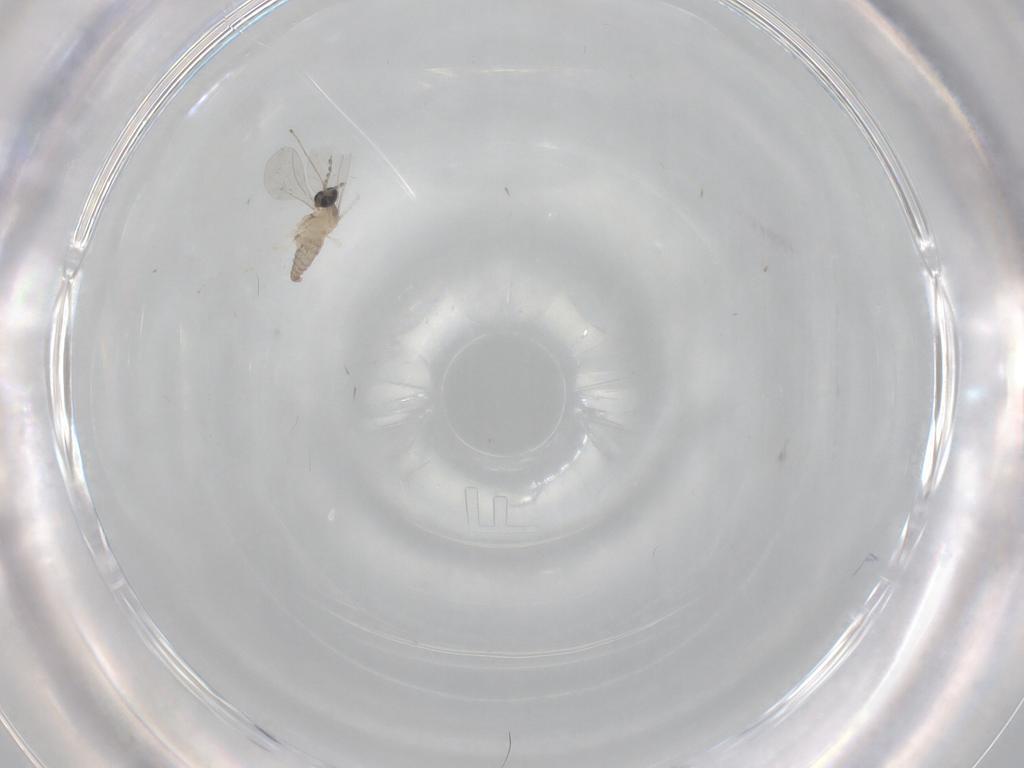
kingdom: Animalia
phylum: Arthropoda
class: Insecta
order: Diptera
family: Cecidomyiidae
